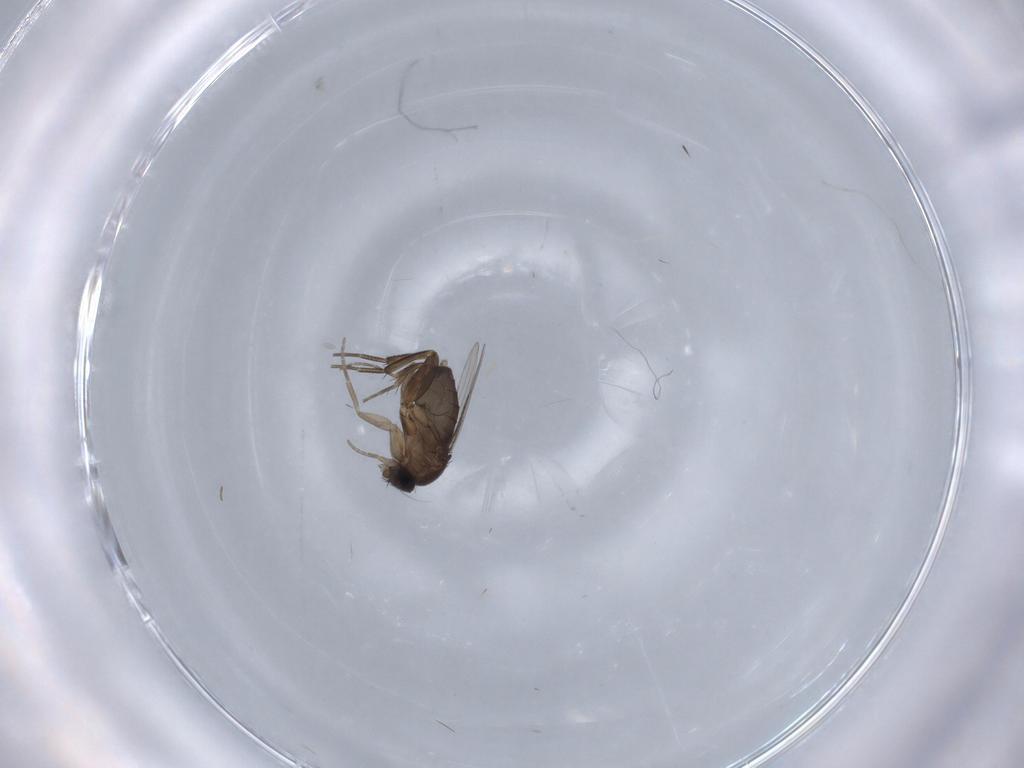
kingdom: Animalia
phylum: Arthropoda
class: Insecta
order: Diptera
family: Phoridae
